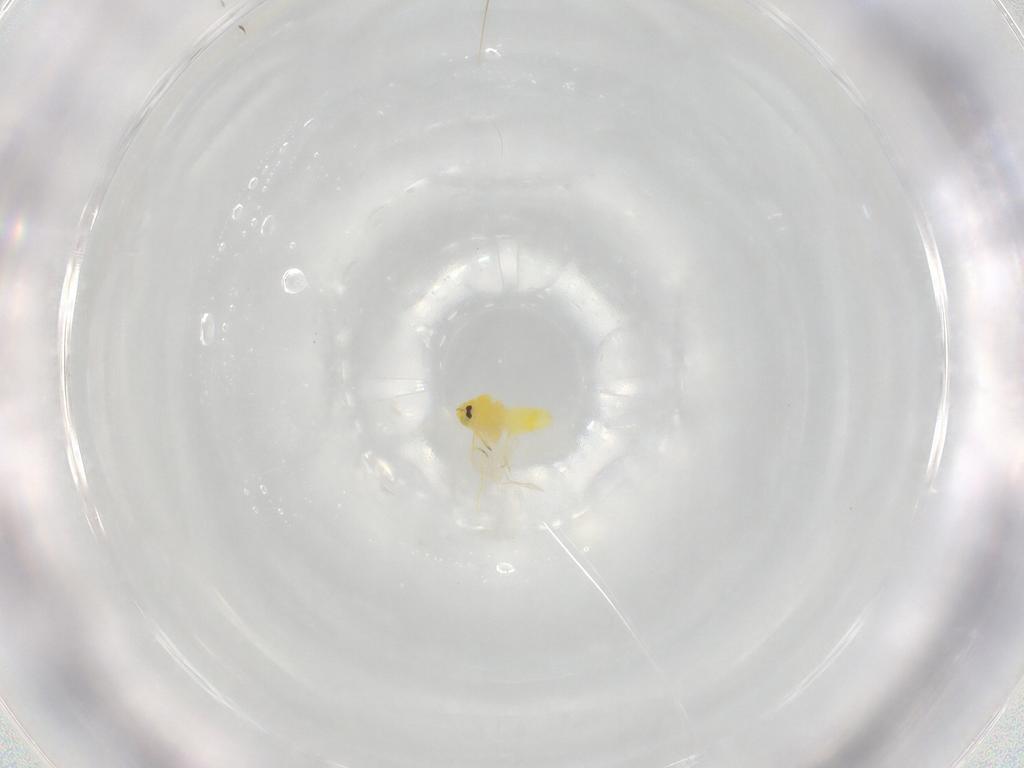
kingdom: Animalia
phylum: Arthropoda
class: Insecta
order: Hemiptera
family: Aleyrodidae
